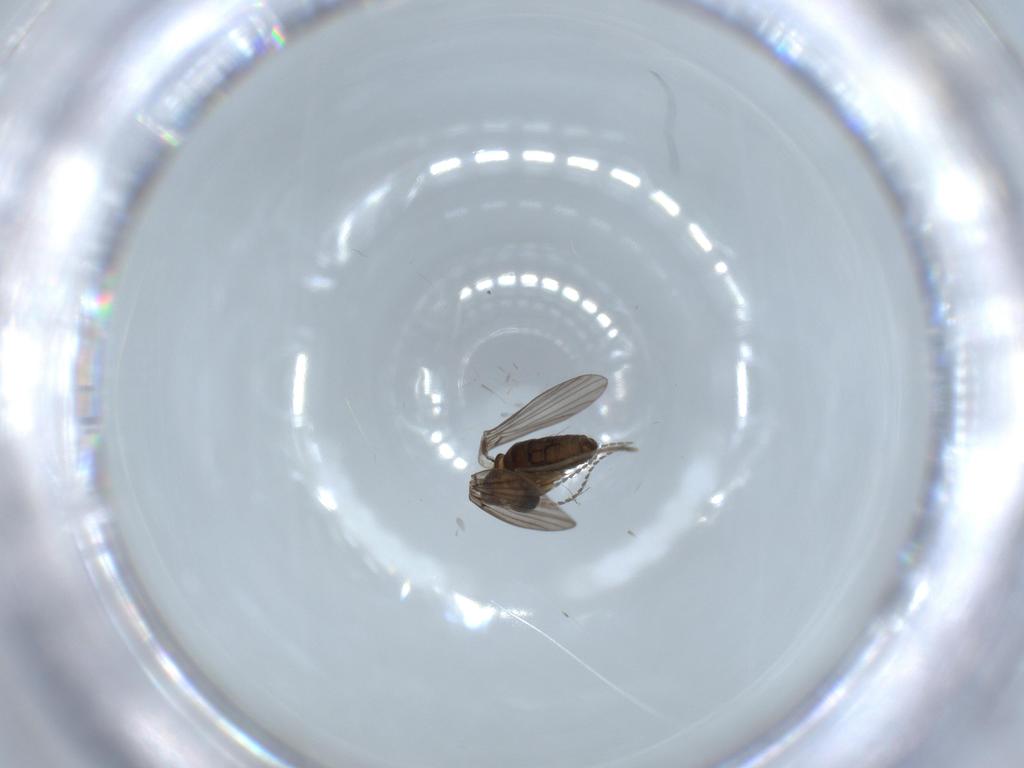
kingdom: Animalia
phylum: Arthropoda
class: Insecta
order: Diptera
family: Psychodidae
